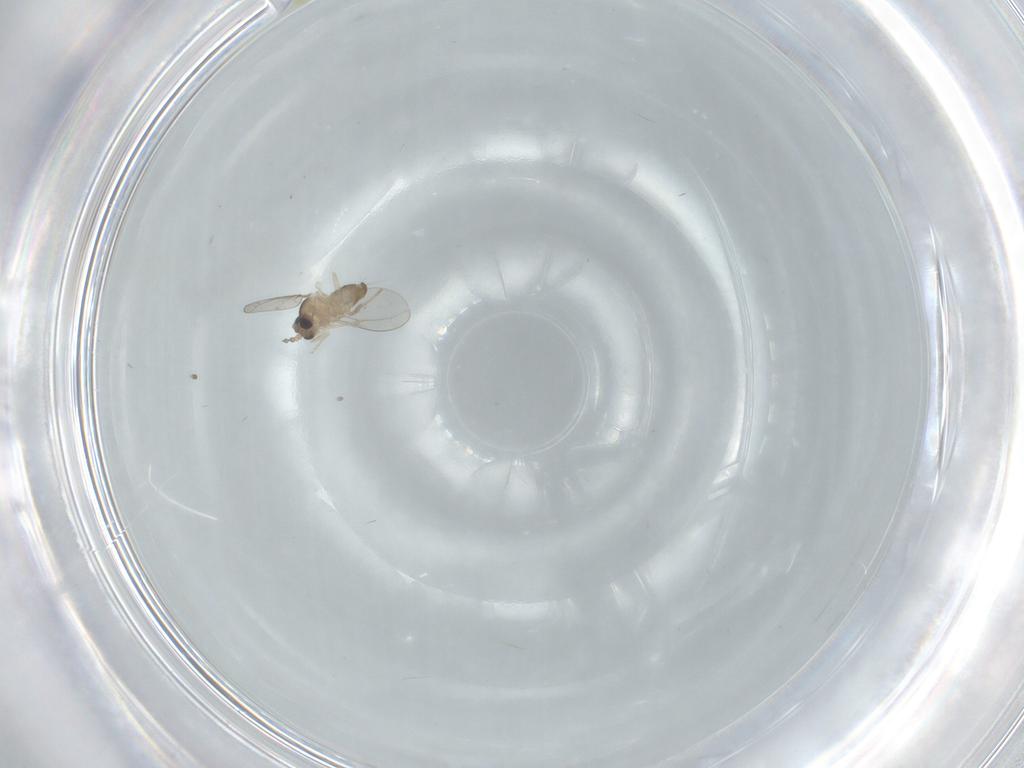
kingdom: Animalia
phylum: Arthropoda
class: Insecta
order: Diptera
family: Cecidomyiidae
